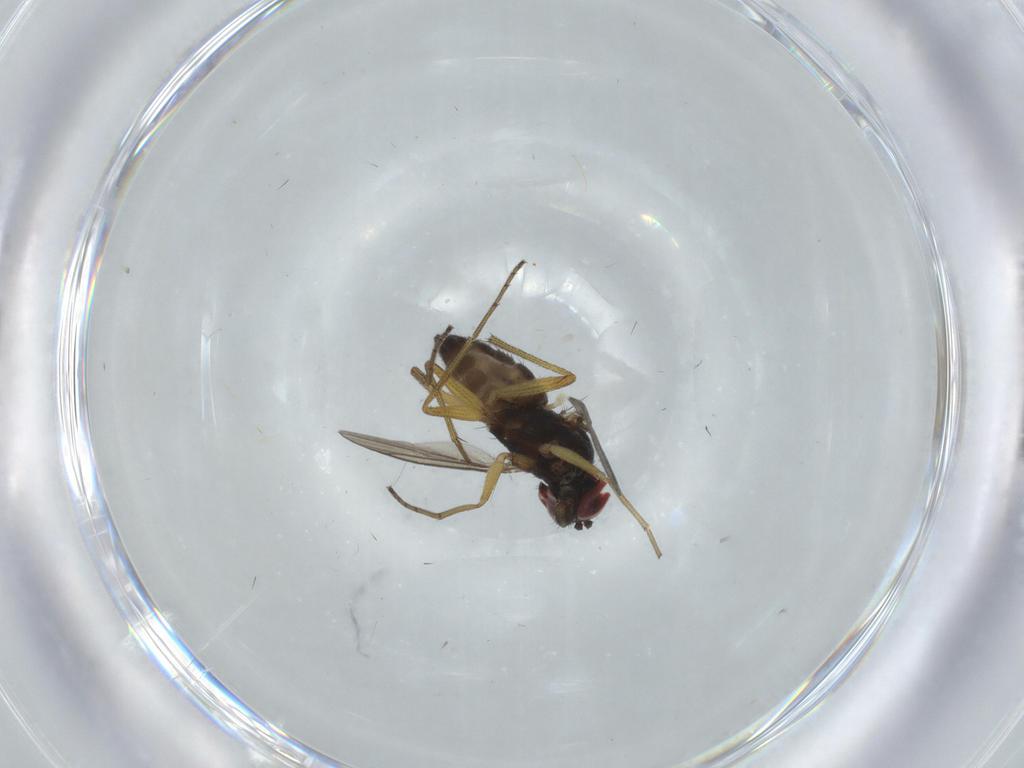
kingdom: Animalia
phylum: Arthropoda
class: Insecta
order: Diptera
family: Dolichopodidae
